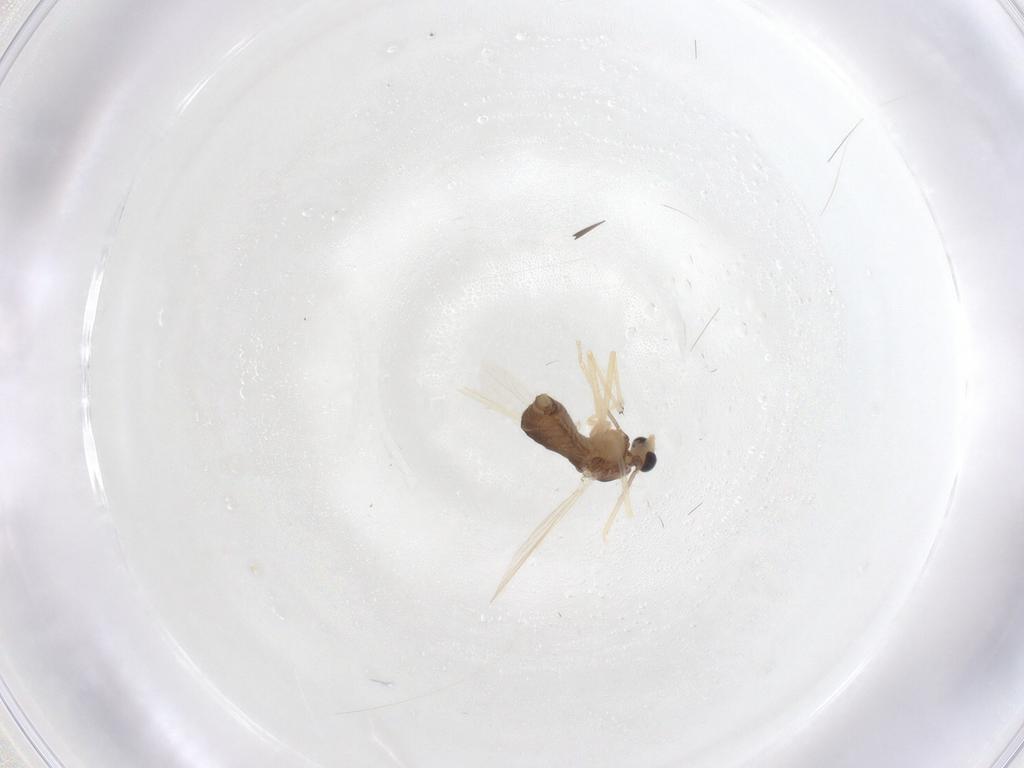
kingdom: Animalia
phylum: Arthropoda
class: Insecta
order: Diptera
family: Chironomidae
